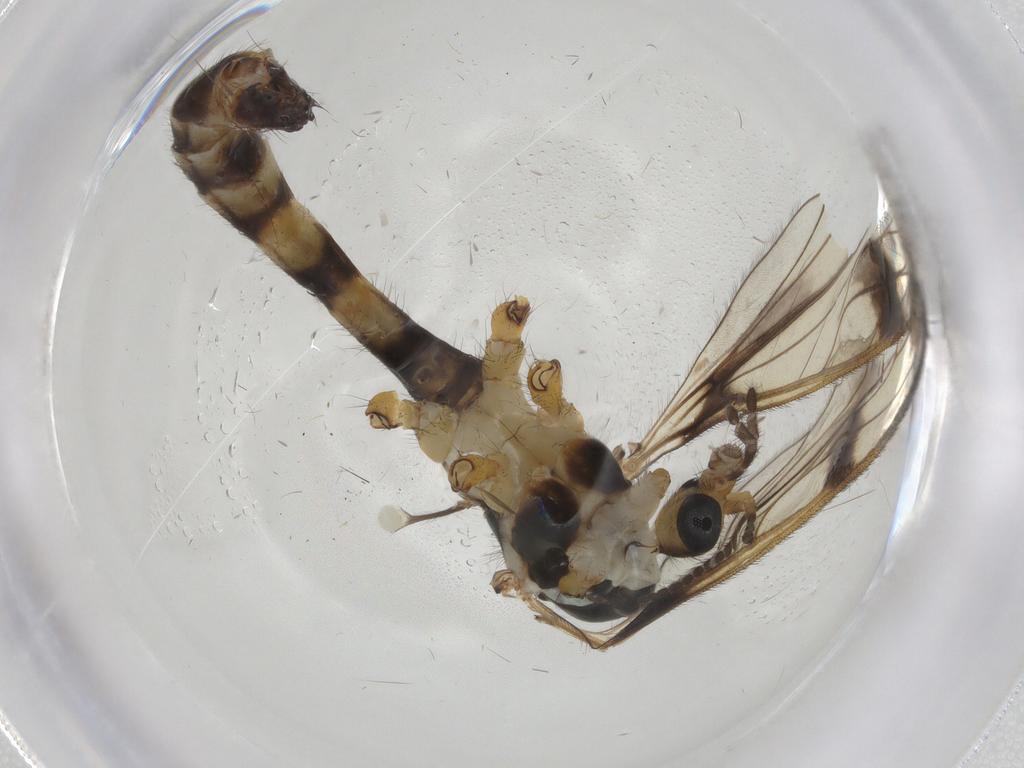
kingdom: Animalia
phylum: Arthropoda
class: Insecta
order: Diptera
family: Limoniidae
